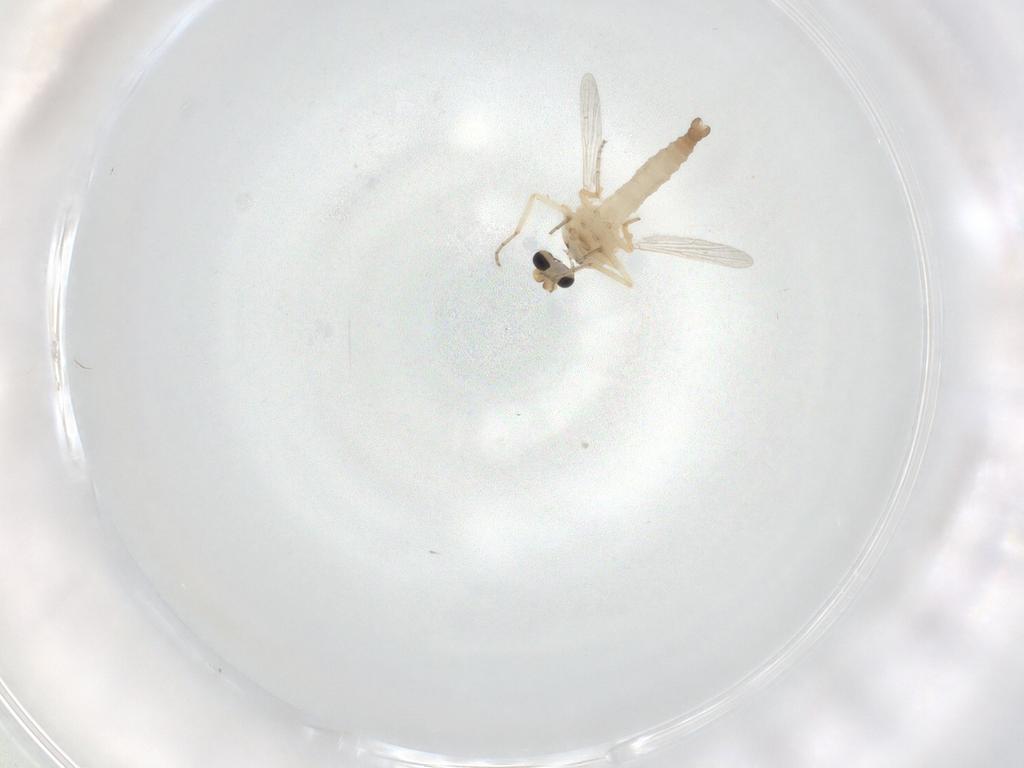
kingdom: Animalia
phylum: Arthropoda
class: Insecta
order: Diptera
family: Ceratopogonidae
